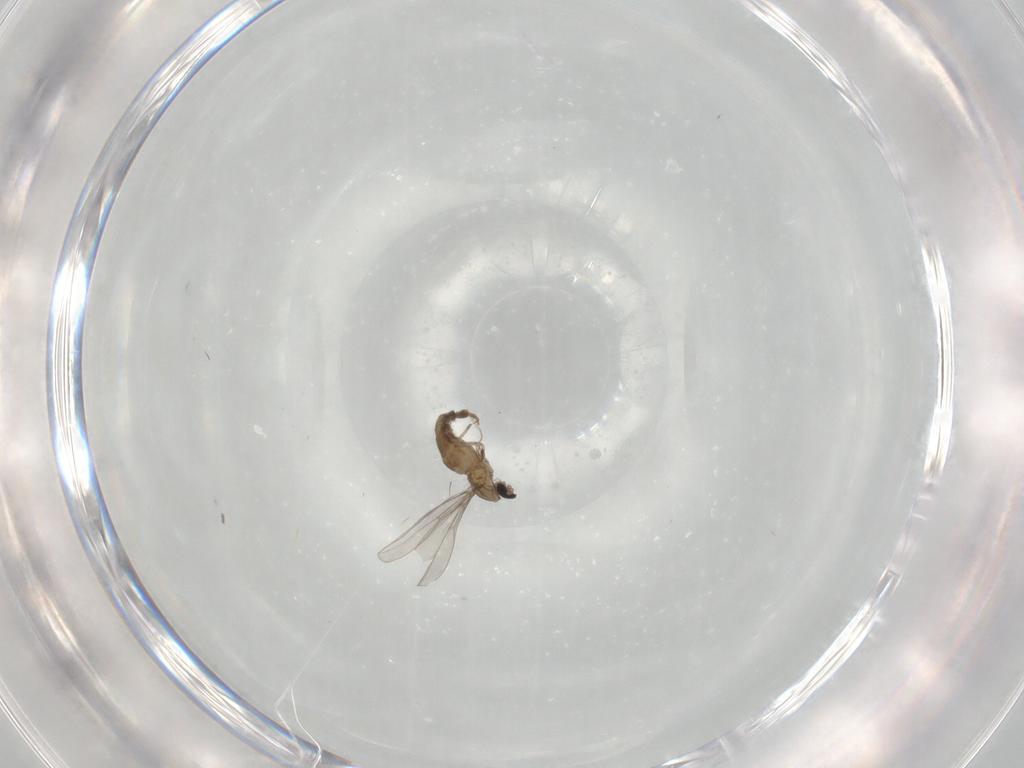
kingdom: Animalia
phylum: Arthropoda
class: Insecta
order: Diptera
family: Cecidomyiidae
